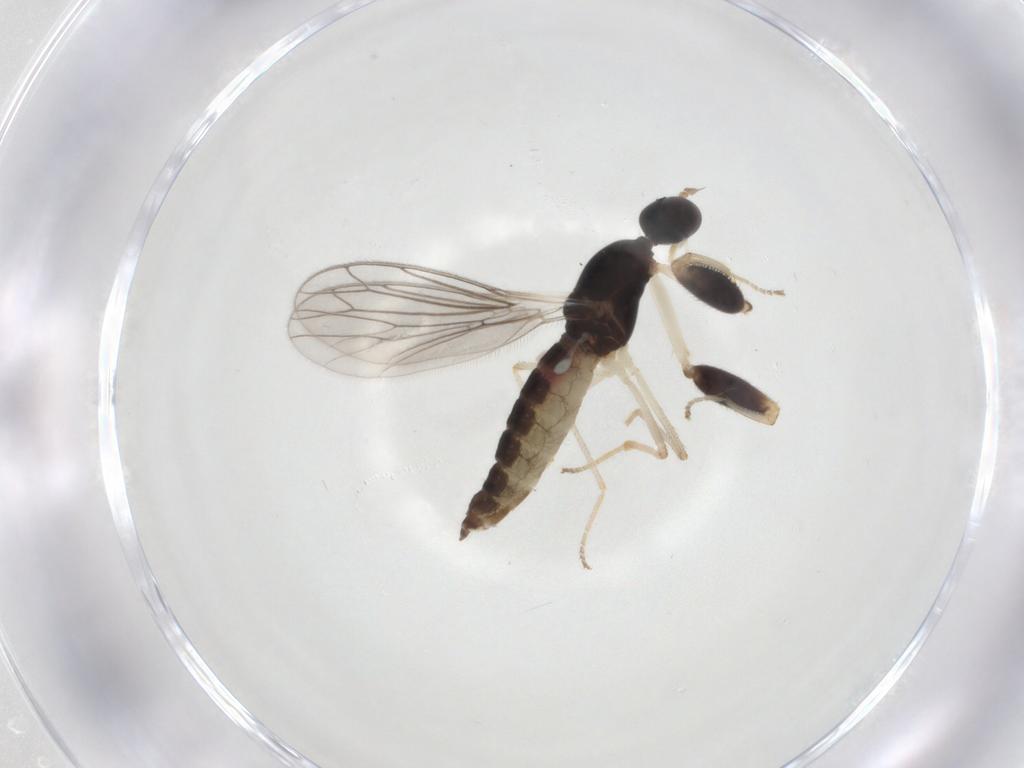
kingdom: Animalia
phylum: Arthropoda
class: Insecta
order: Diptera
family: Empididae
